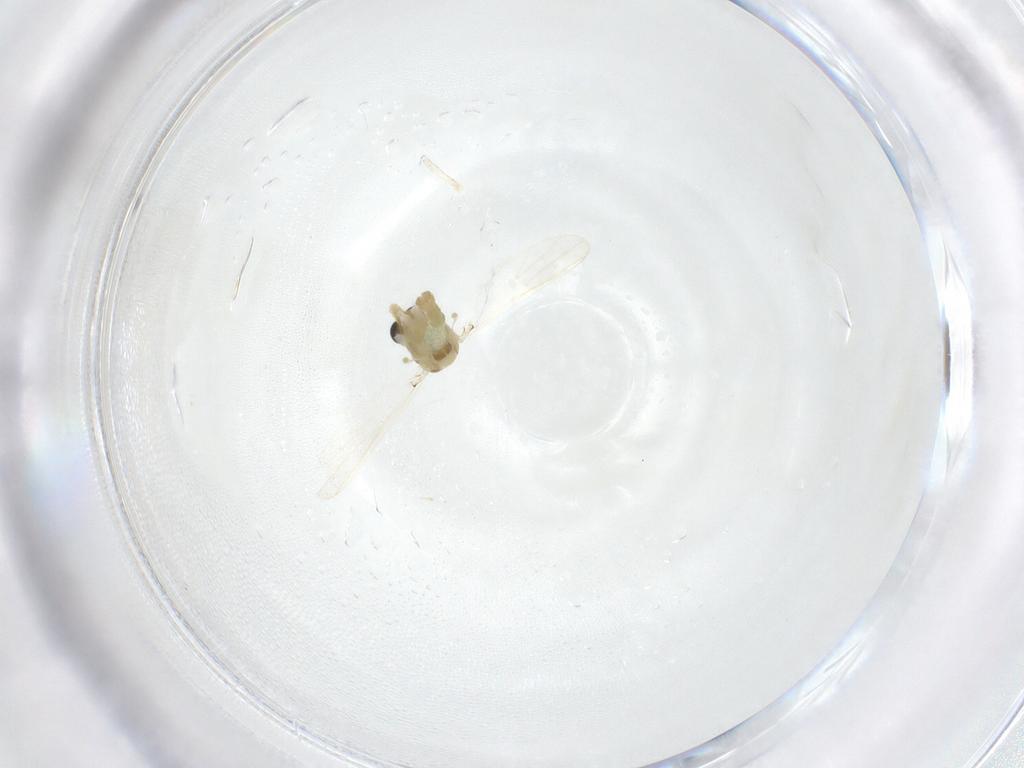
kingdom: Animalia
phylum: Arthropoda
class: Insecta
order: Diptera
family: Chironomidae
